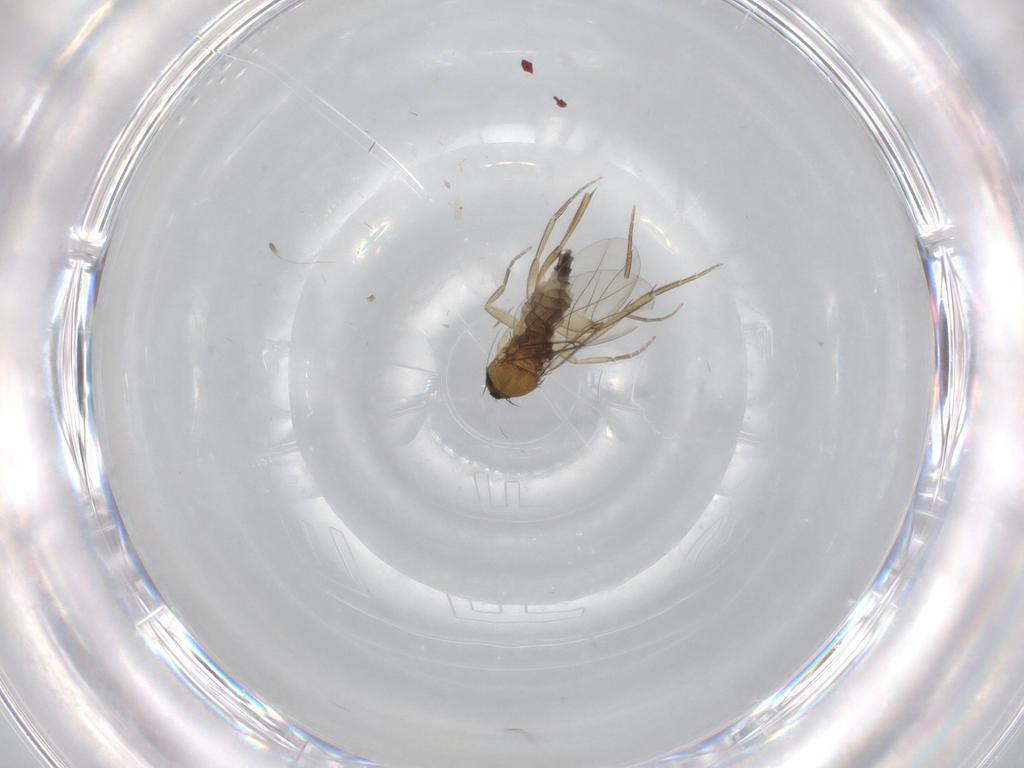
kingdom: Animalia
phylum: Arthropoda
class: Insecta
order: Diptera
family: Phoridae
